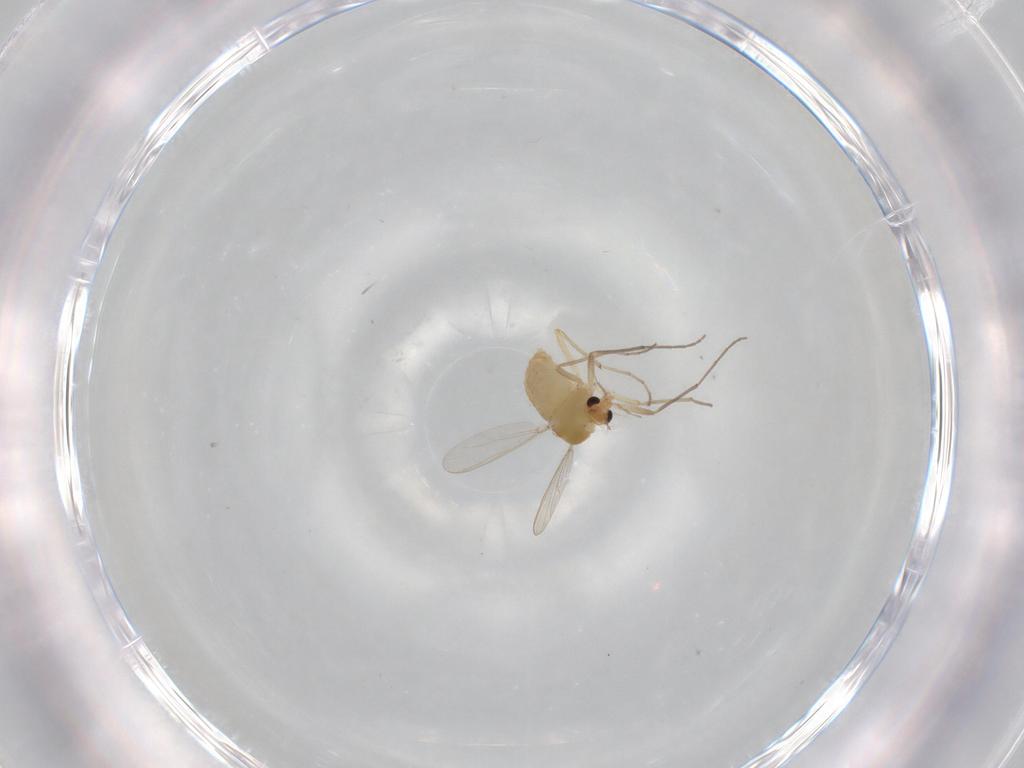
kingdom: Animalia
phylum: Arthropoda
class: Insecta
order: Diptera
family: Chironomidae
